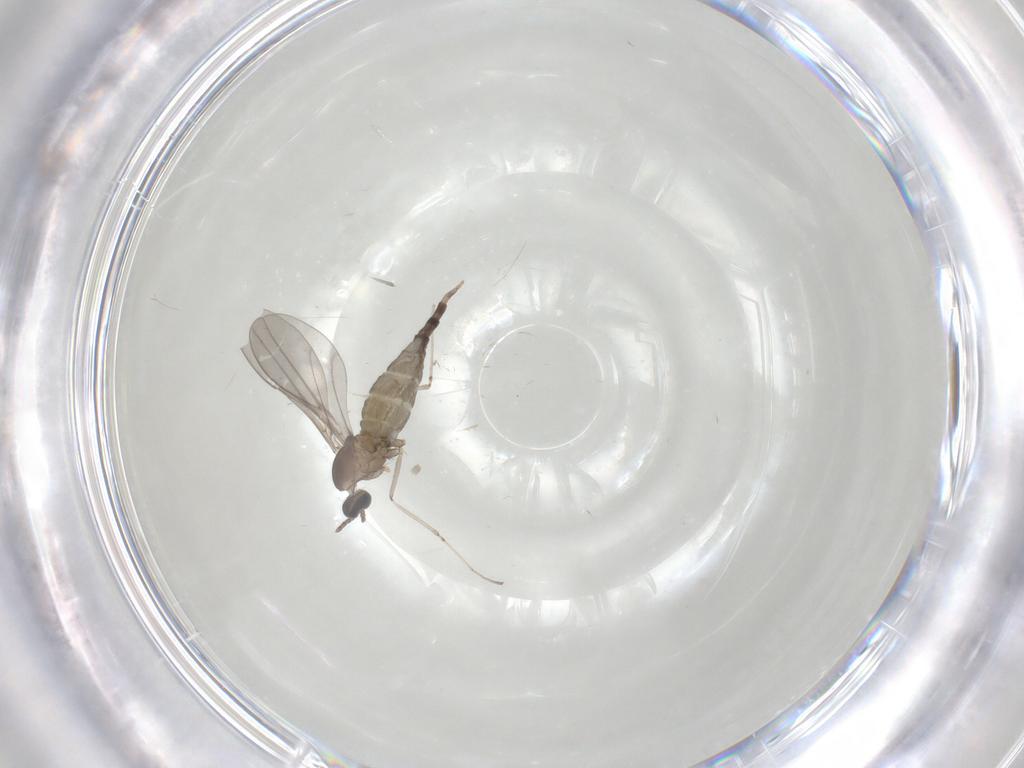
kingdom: Animalia
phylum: Arthropoda
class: Insecta
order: Diptera
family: Cecidomyiidae
